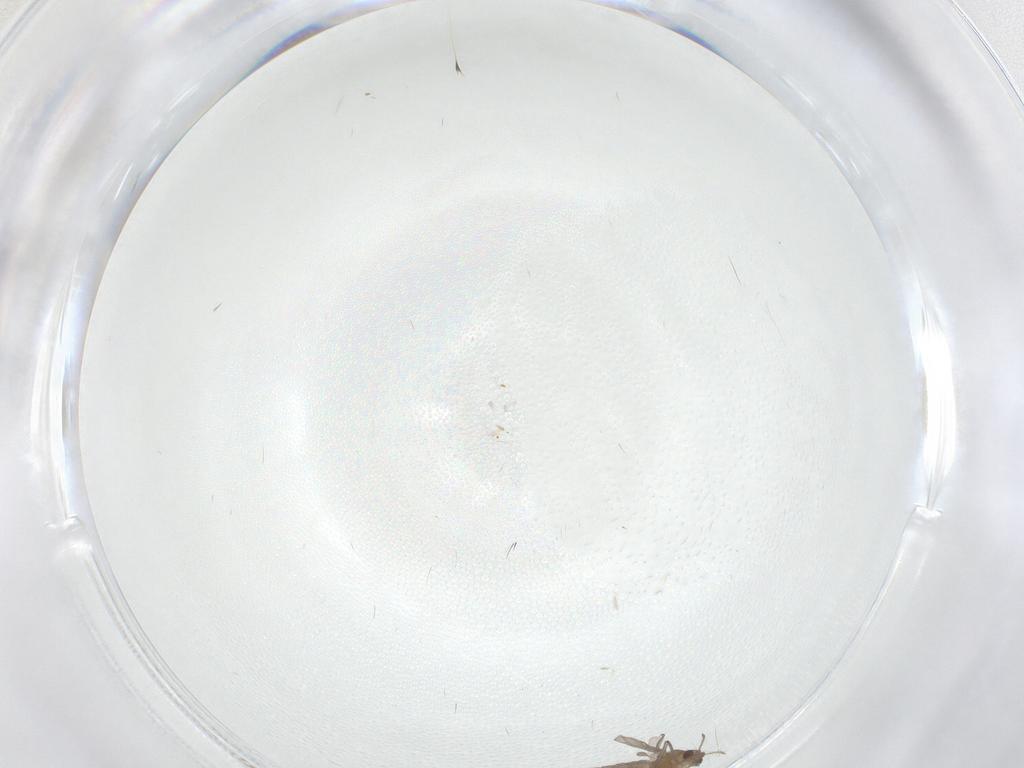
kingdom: Animalia
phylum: Arthropoda
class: Insecta
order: Diptera
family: Chironomidae
